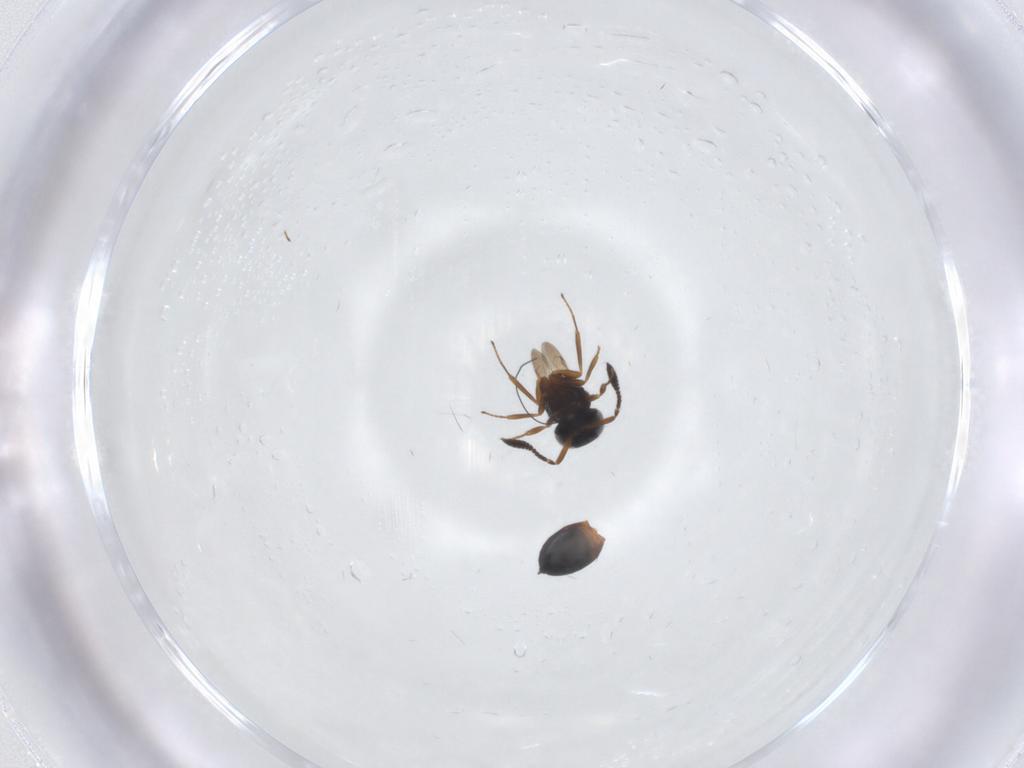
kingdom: Animalia
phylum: Arthropoda
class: Insecta
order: Hymenoptera
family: Scelionidae
